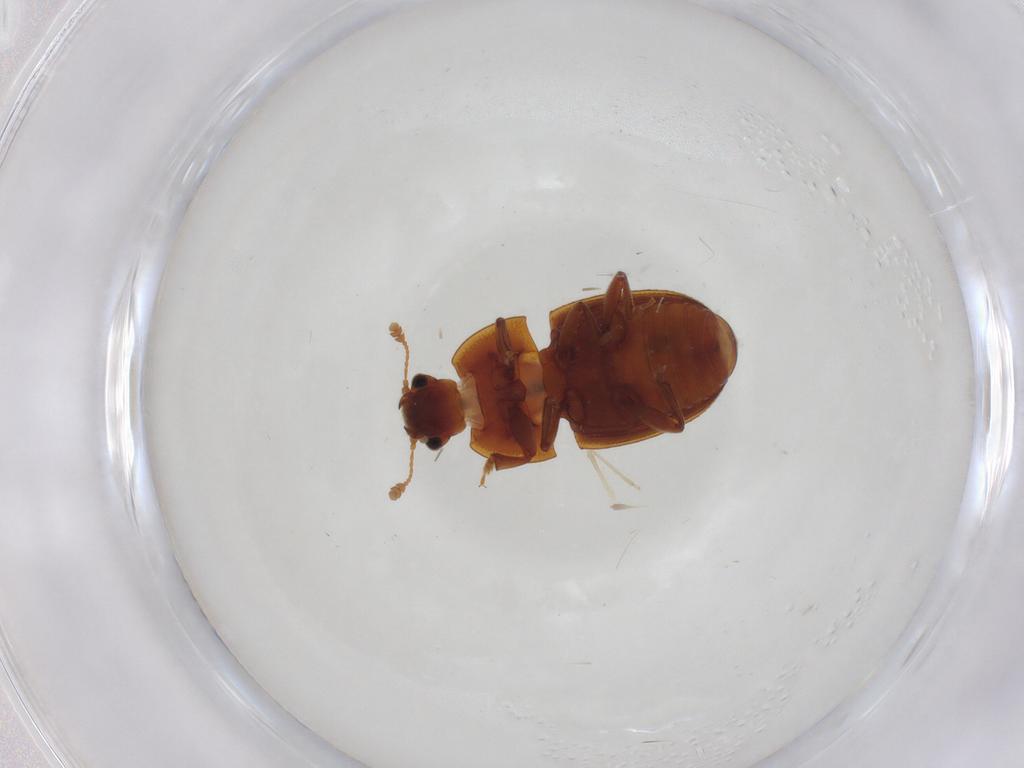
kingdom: Animalia
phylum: Arthropoda
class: Insecta
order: Coleoptera
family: Nitidulidae
